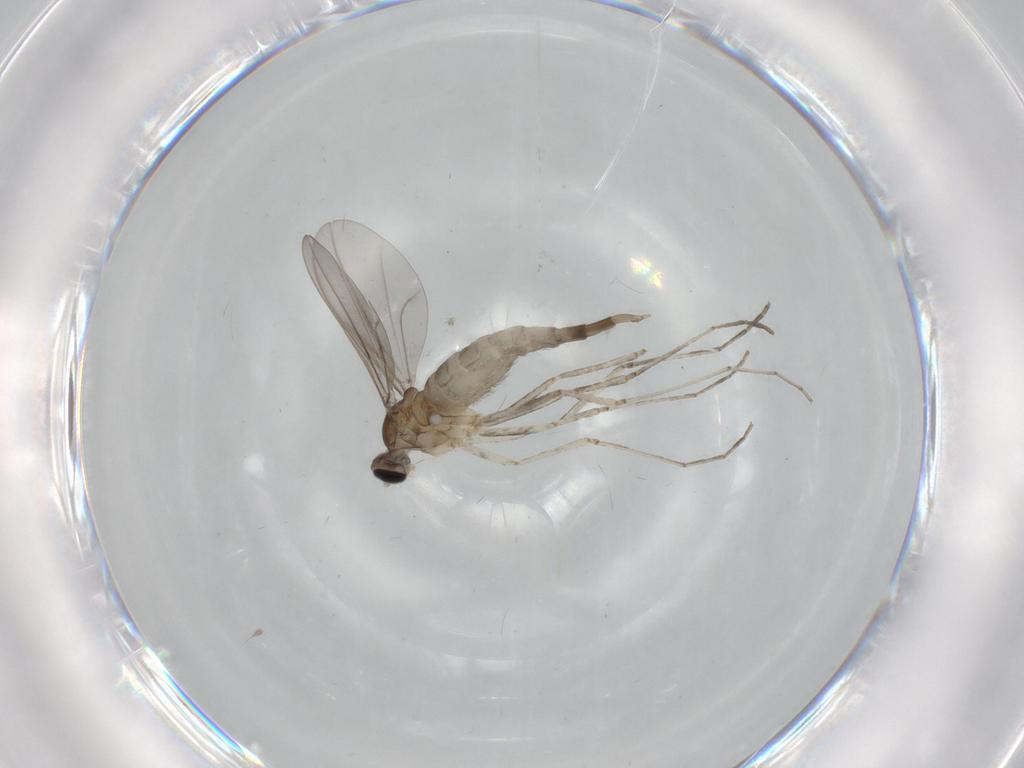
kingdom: Animalia
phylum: Arthropoda
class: Insecta
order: Diptera
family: Cecidomyiidae
